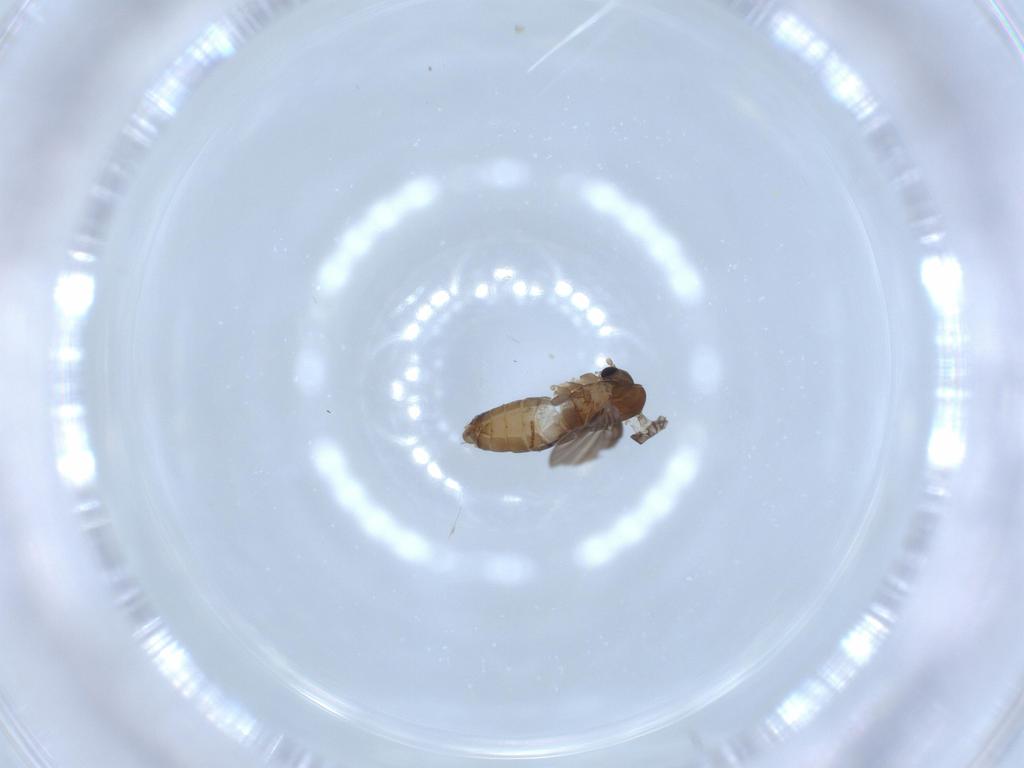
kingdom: Animalia
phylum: Arthropoda
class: Insecta
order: Diptera
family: Psychodidae
